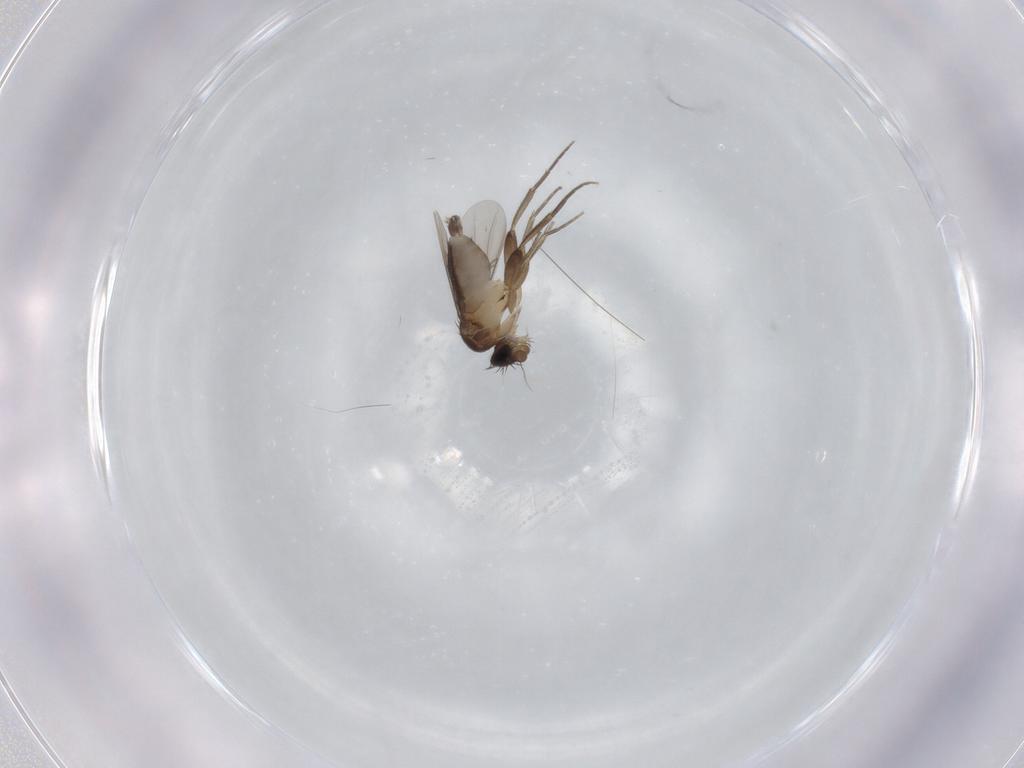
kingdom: Animalia
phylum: Arthropoda
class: Insecta
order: Diptera
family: Phoridae
